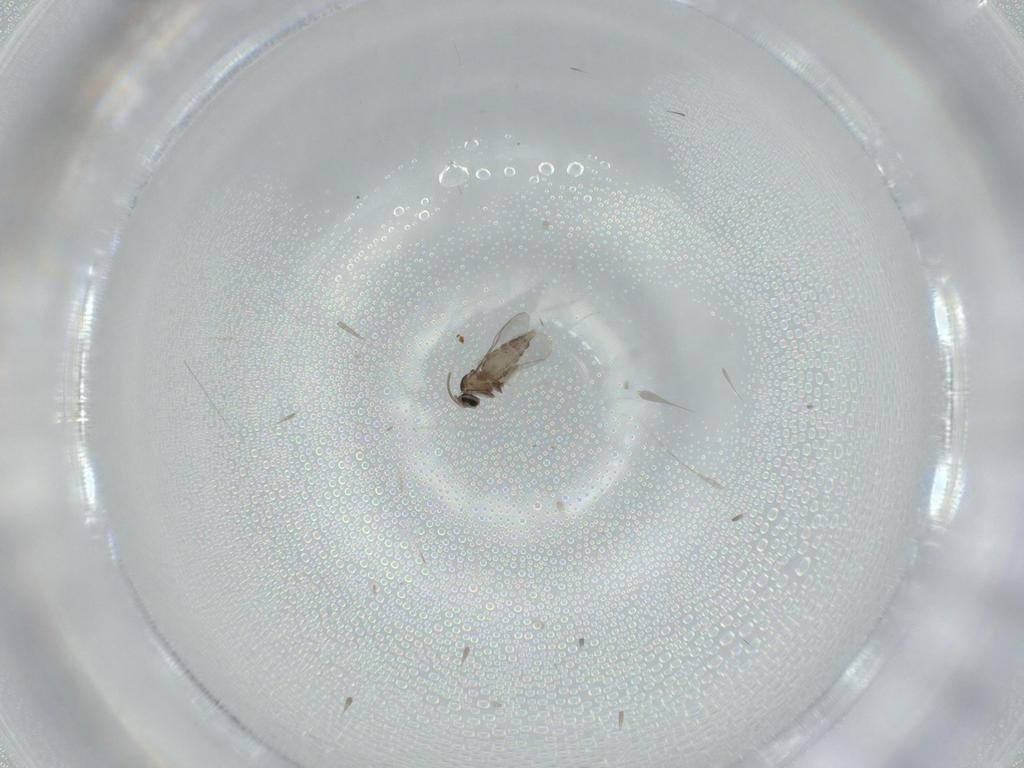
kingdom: Animalia
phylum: Arthropoda
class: Insecta
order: Diptera
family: Cecidomyiidae
